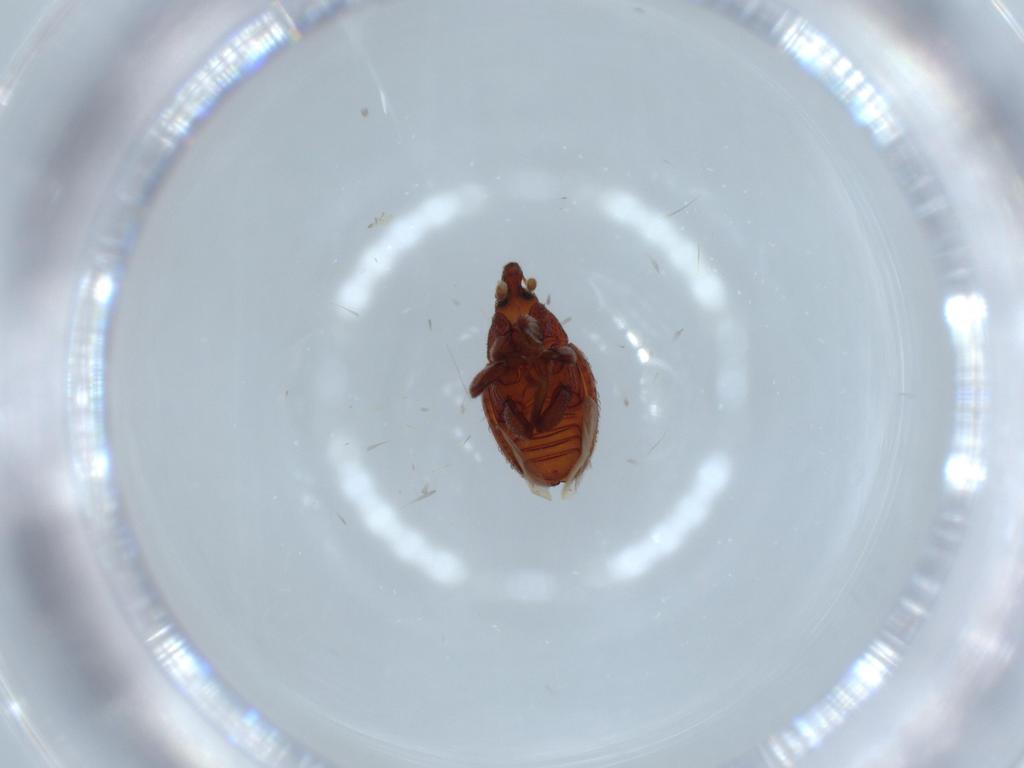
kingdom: Animalia
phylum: Arthropoda
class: Insecta
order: Coleoptera
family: Curculionidae
